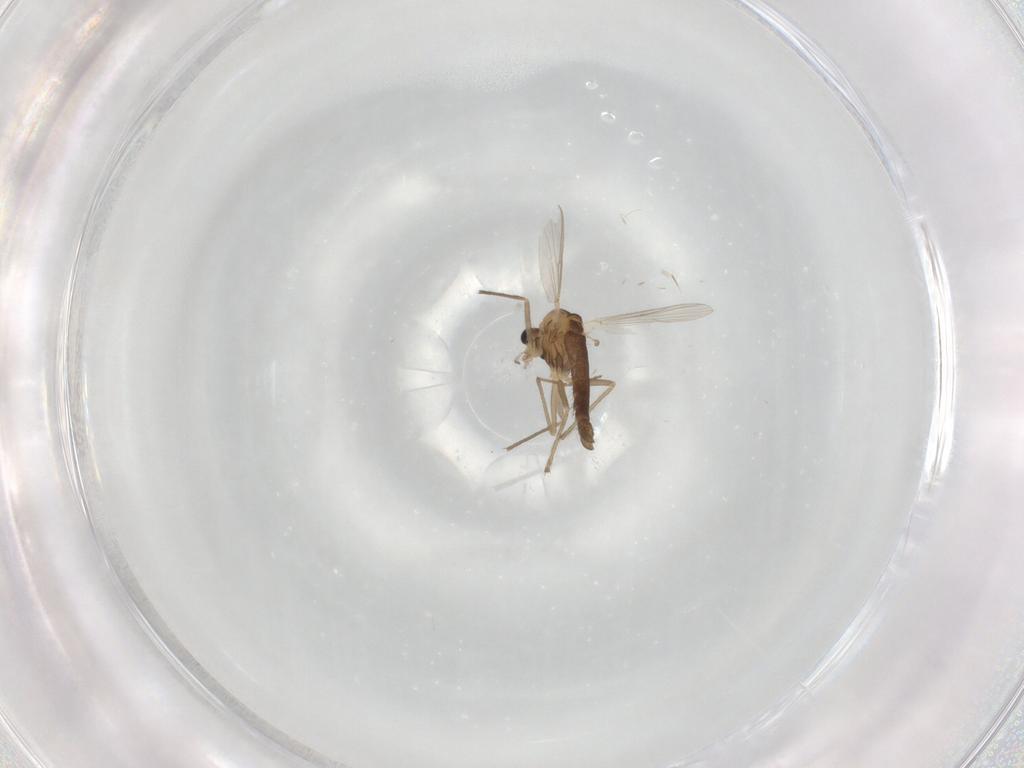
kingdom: Animalia
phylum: Arthropoda
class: Insecta
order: Diptera
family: Chironomidae
